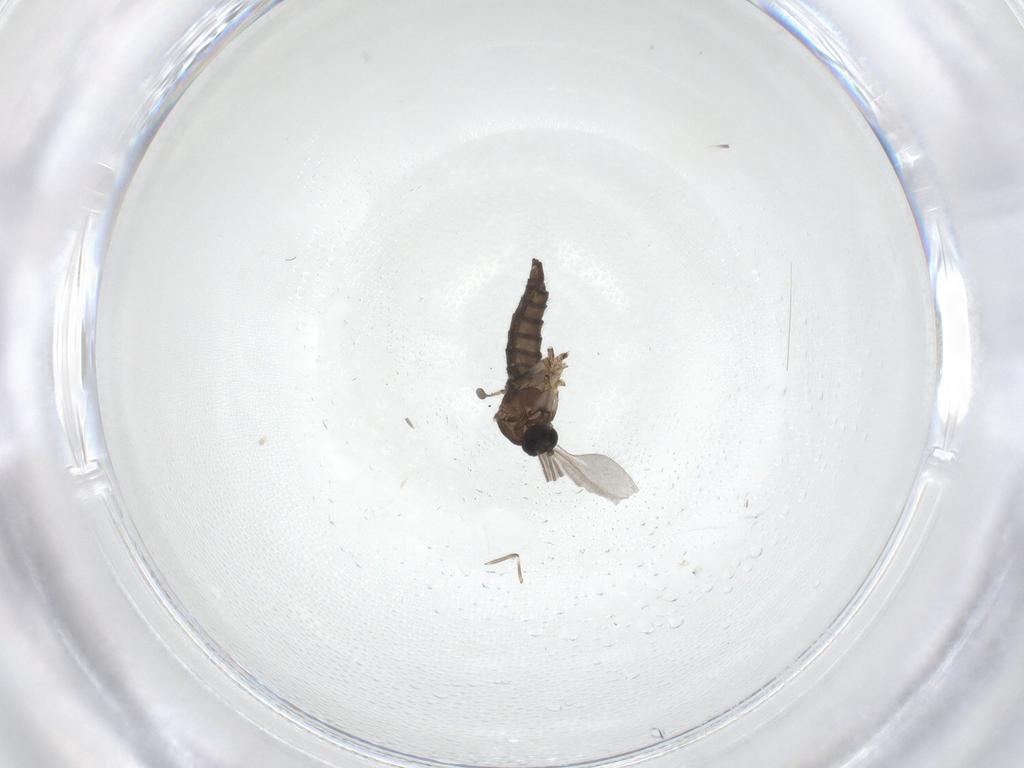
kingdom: Animalia
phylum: Arthropoda
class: Insecta
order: Diptera
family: Sciaridae
